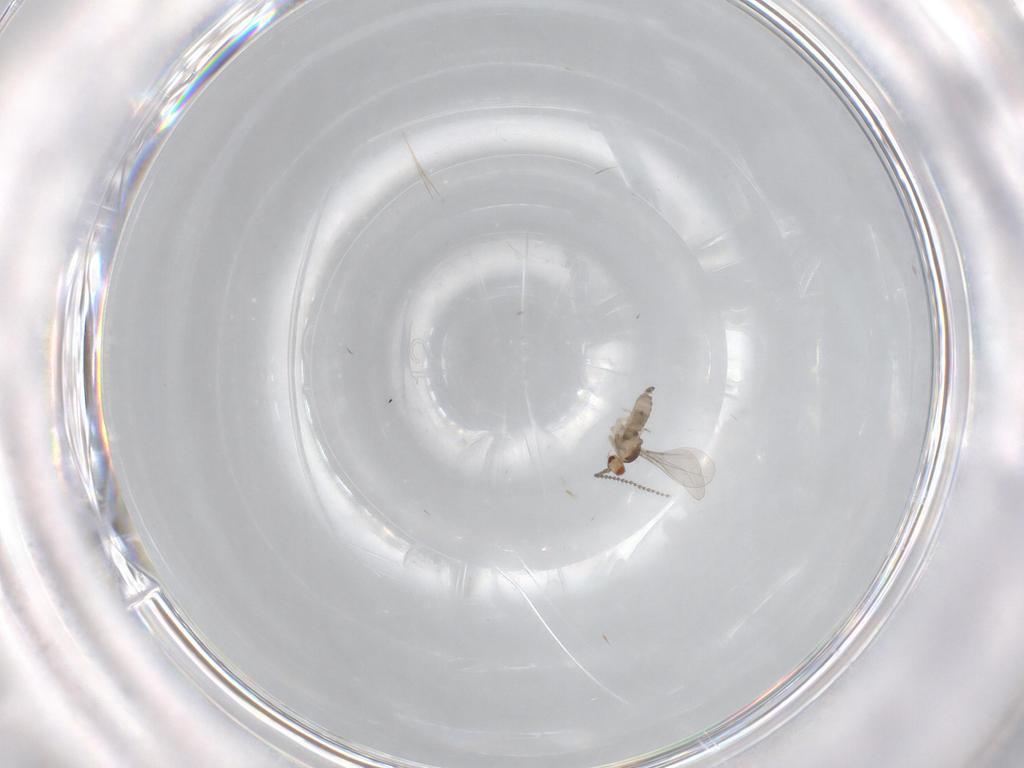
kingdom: Animalia
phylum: Arthropoda
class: Insecta
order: Diptera
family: Cecidomyiidae
